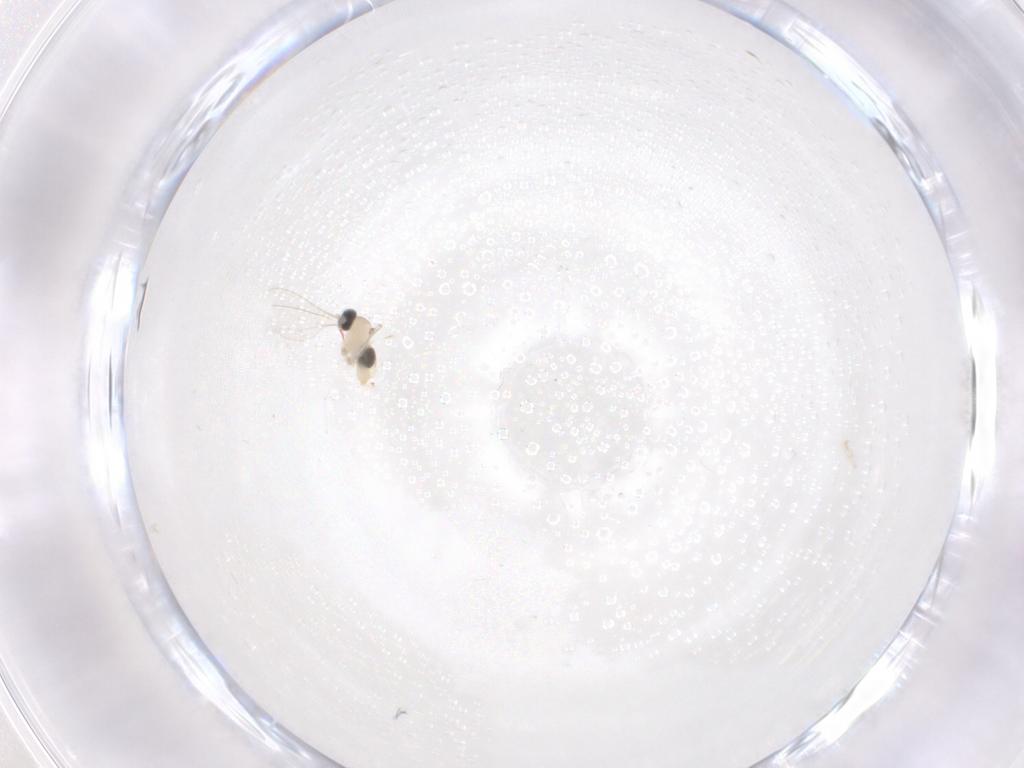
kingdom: Animalia
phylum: Arthropoda
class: Insecta
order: Diptera
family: Cecidomyiidae
